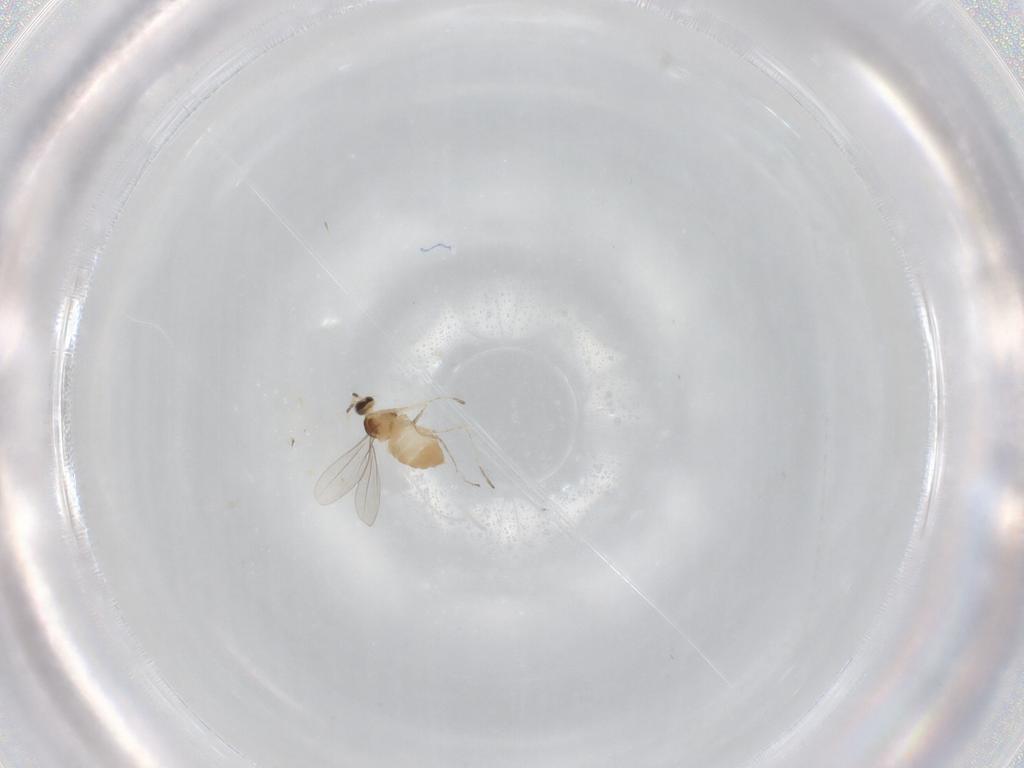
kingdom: Animalia
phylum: Arthropoda
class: Insecta
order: Diptera
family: Cecidomyiidae
